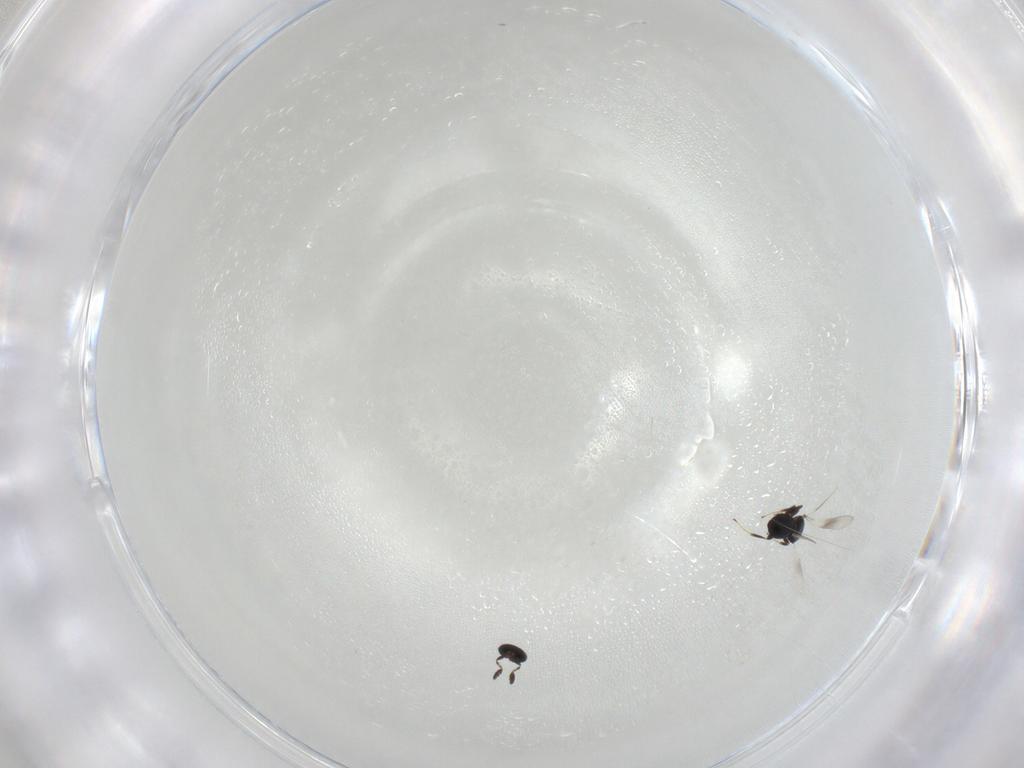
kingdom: Animalia
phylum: Arthropoda
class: Insecta
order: Hymenoptera
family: Platygastridae
